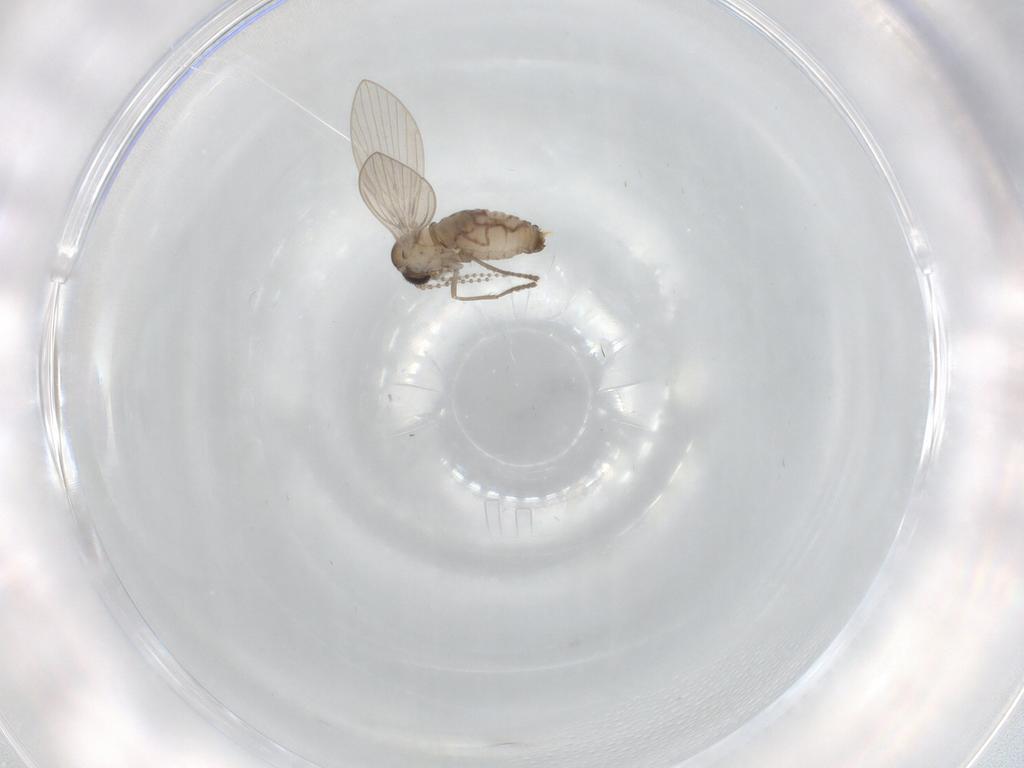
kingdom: Animalia
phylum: Arthropoda
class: Insecta
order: Diptera
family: Psychodidae
